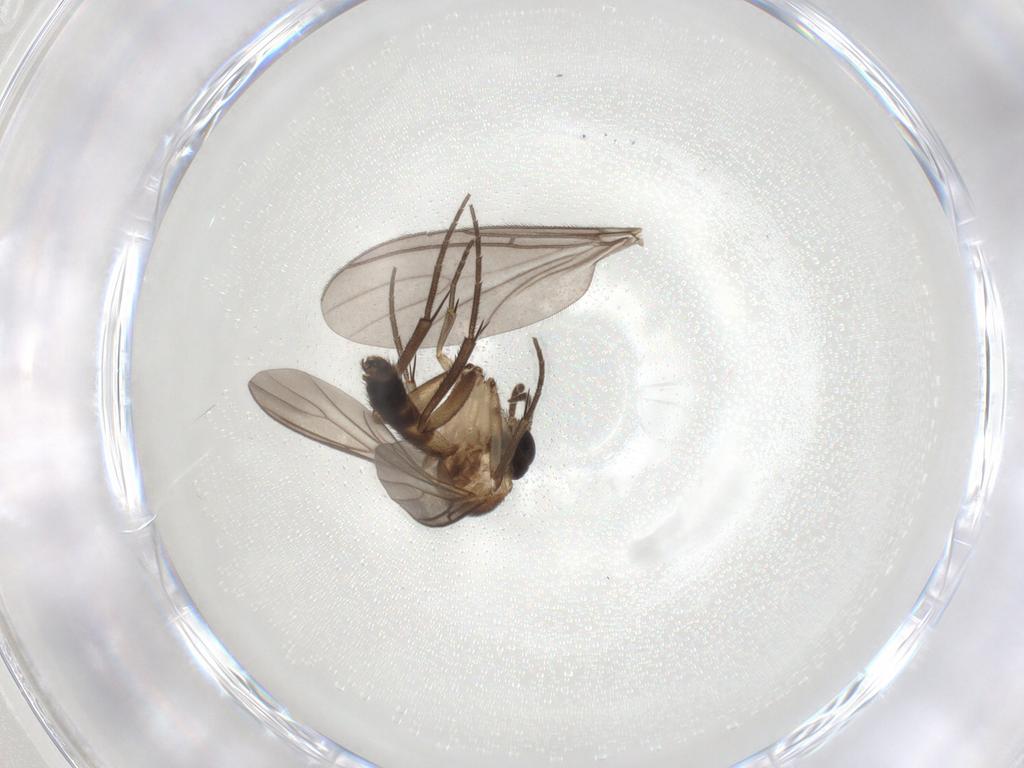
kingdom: Animalia
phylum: Arthropoda
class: Insecta
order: Diptera
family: Mycetophilidae
